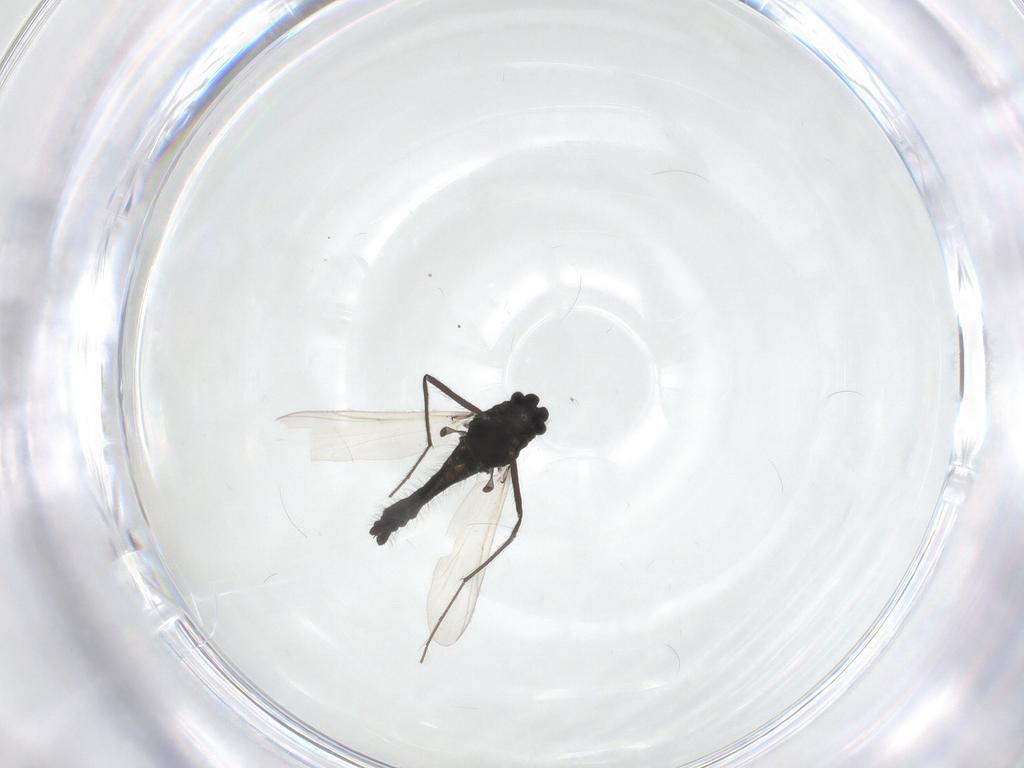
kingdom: Animalia
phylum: Arthropoda
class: Insecta
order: Diptera
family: Chironomidae
